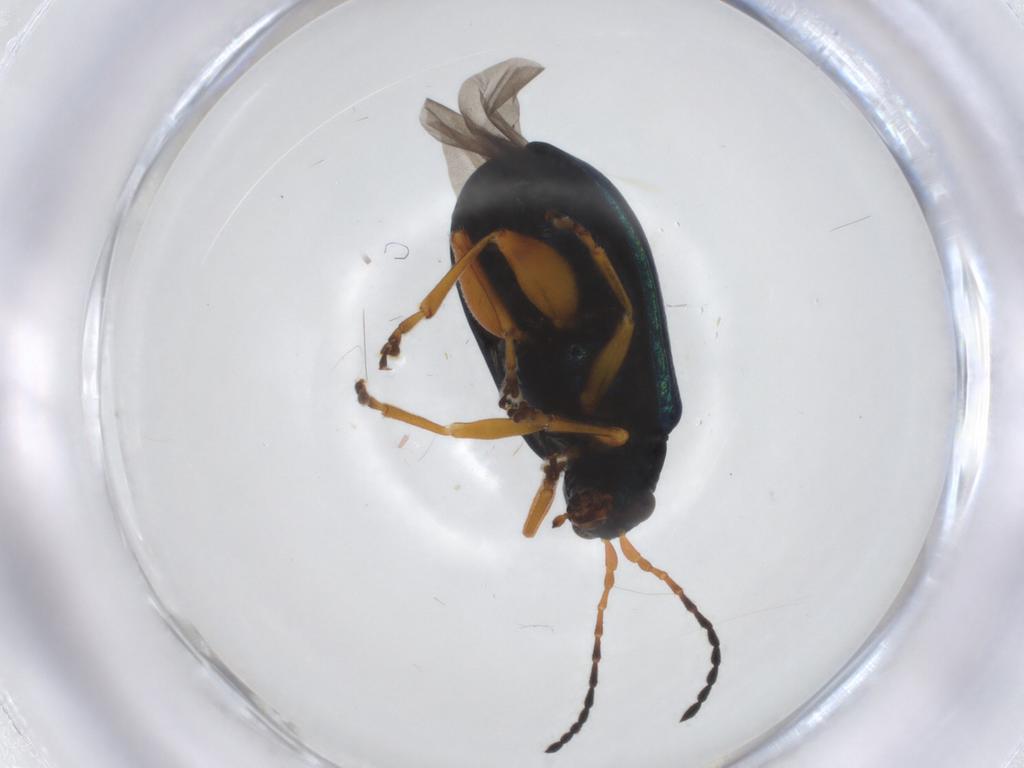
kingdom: Animalia
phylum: Arthropoda
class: Insecta
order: Coleoptera
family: Chrysomelidae
